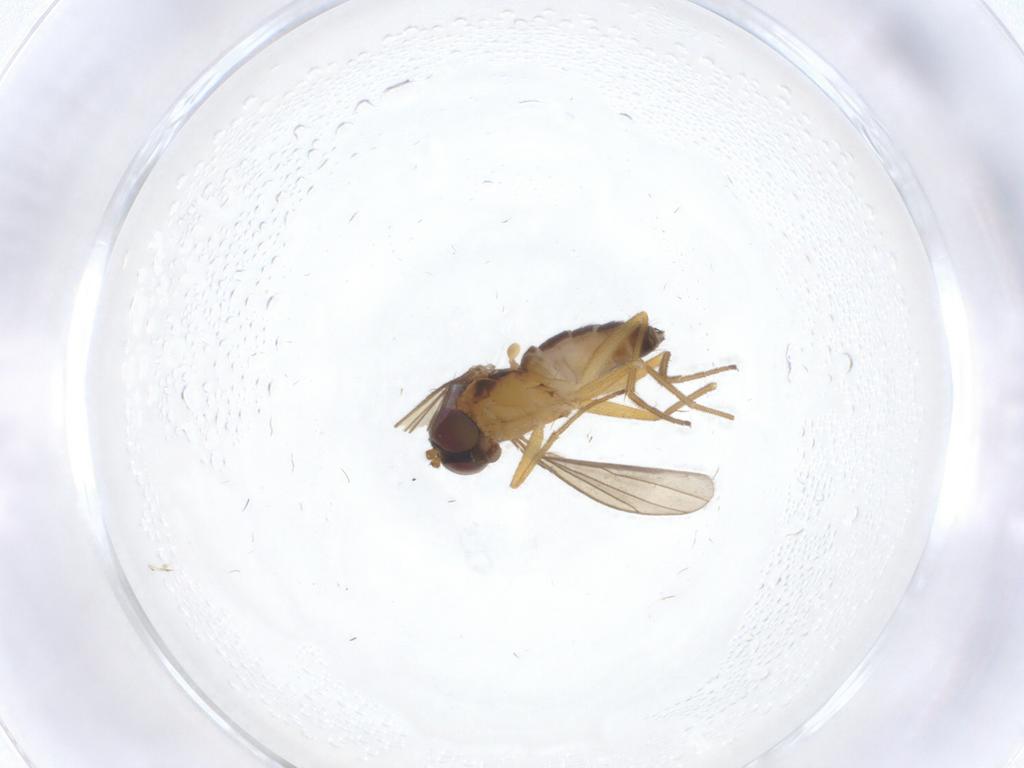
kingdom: Animalia
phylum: Arthropoda
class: Insecta
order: Diptera
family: Dolichopodidae
